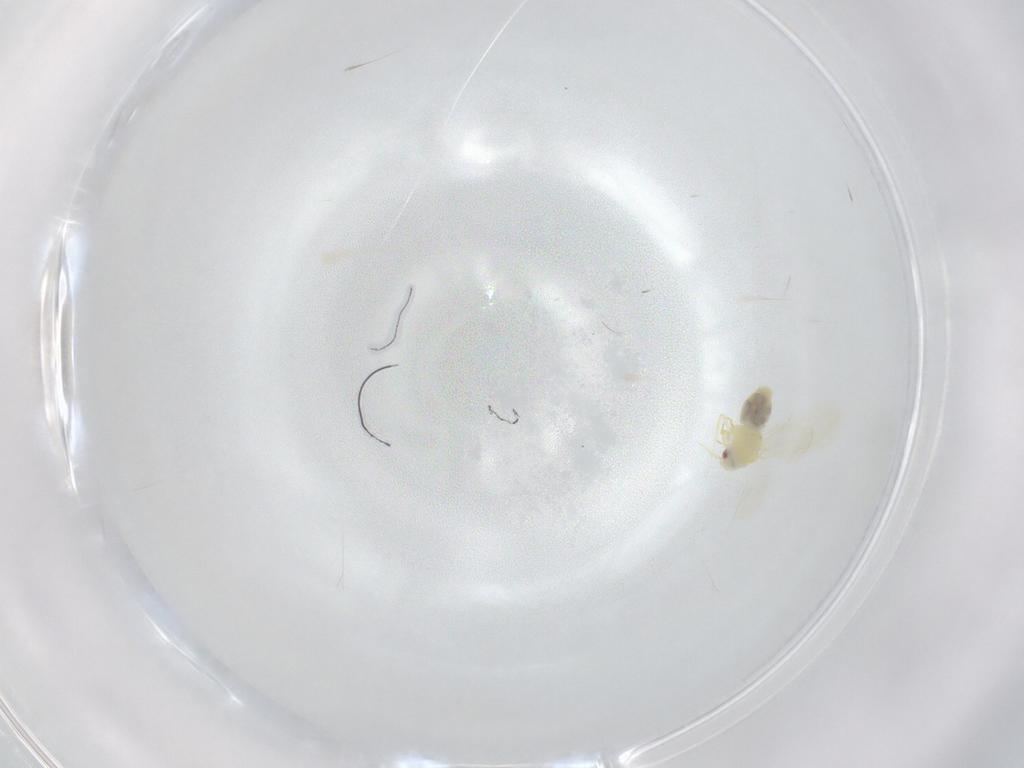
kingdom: Animalia
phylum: Arthropoda
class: Insecta
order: Hemiptera
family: Aleyrodidae
